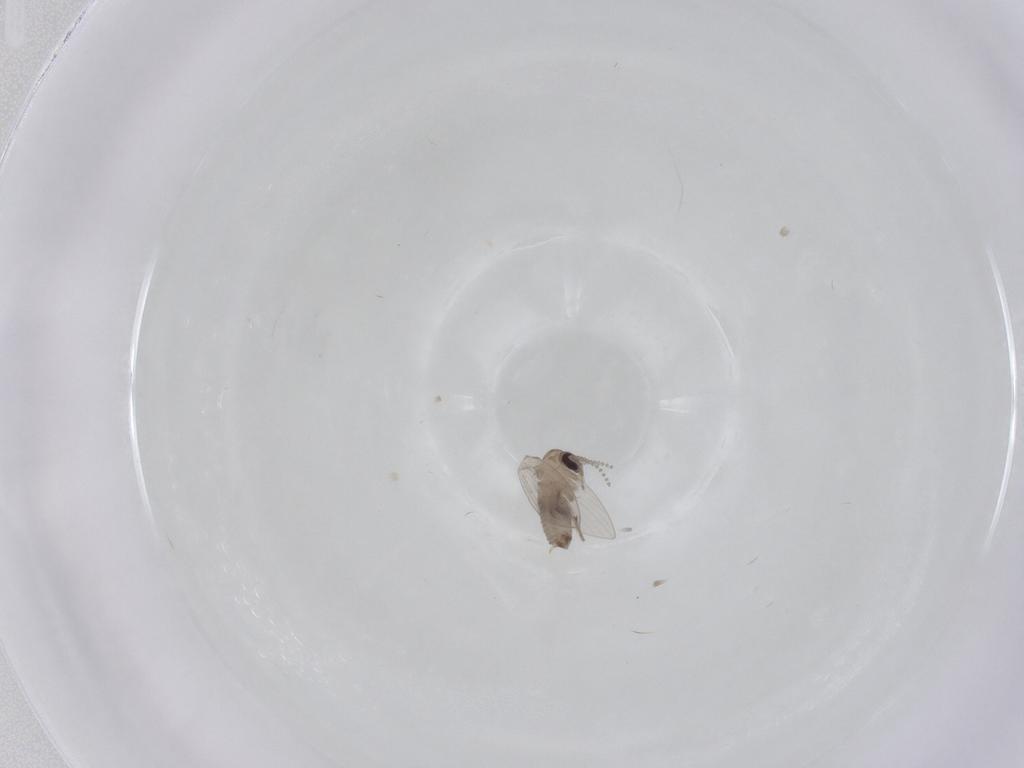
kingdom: Animalia
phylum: Arthropoda
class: Insecta
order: Diptera
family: Psychodidae
